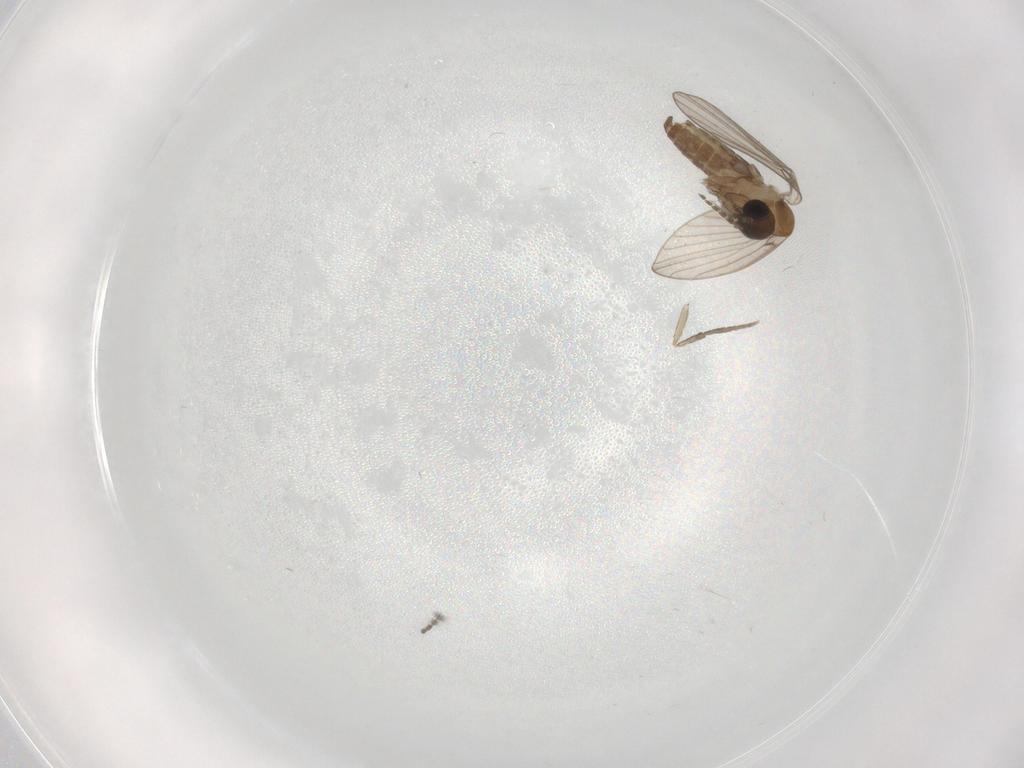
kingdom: Animalia
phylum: Arthropoda
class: Insecta
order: Diptera
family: Psychodidae
